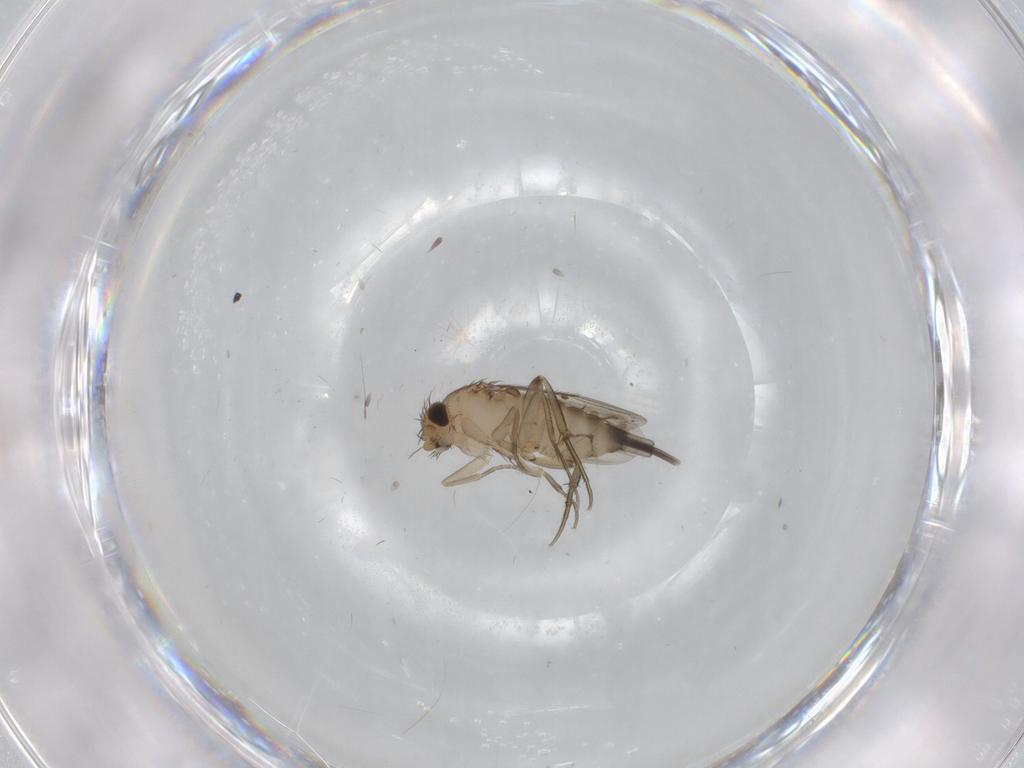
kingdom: Animalia
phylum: Arthropoda
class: Insecta
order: Diptera
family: Ceratopogonidae
